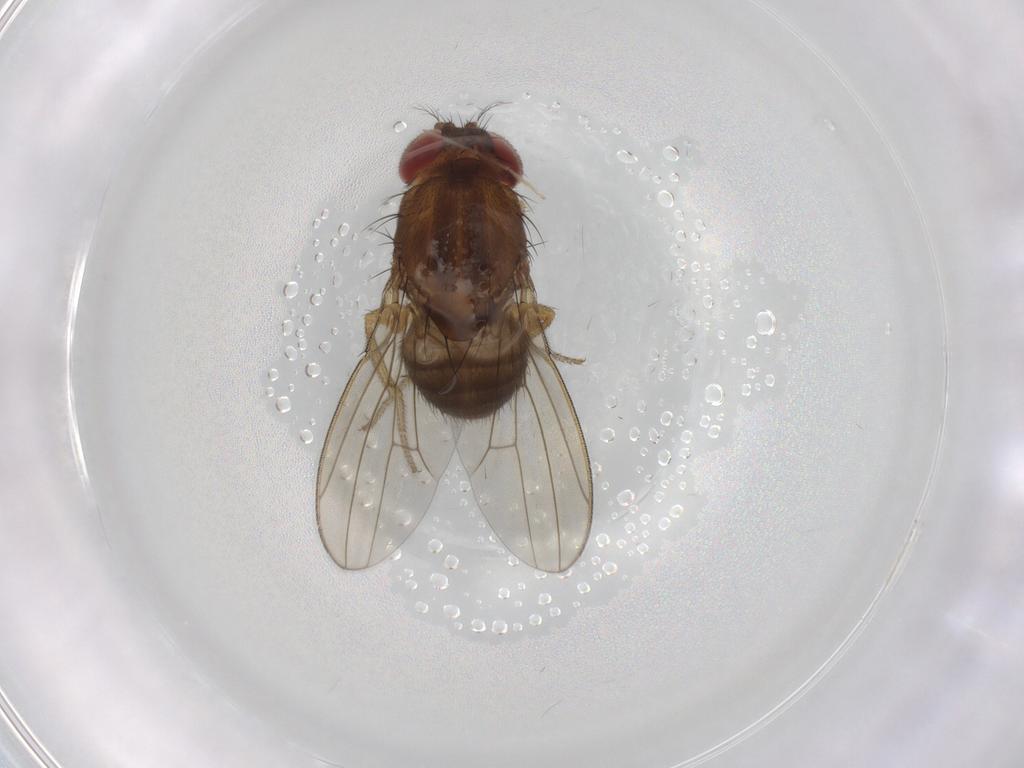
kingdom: Animalia
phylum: Arthropoda
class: Insecta
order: Diptera
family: Drosophilidae
